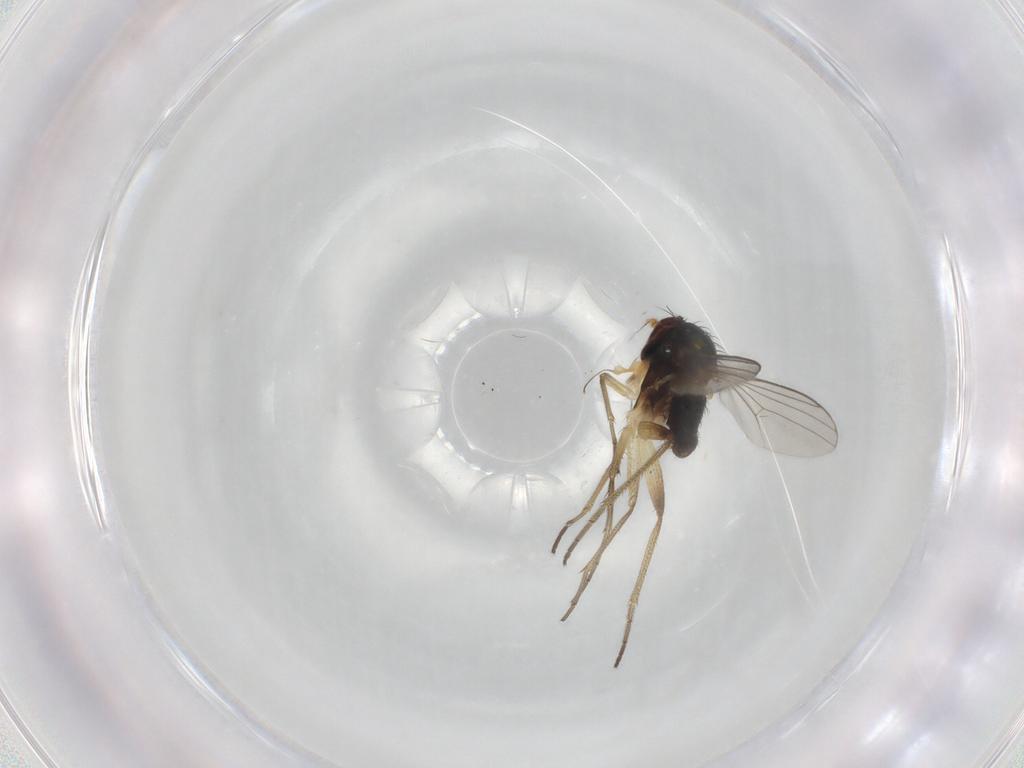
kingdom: Animalia
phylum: Arthropoda
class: Insecta
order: Diptera
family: Dolichopodidae
